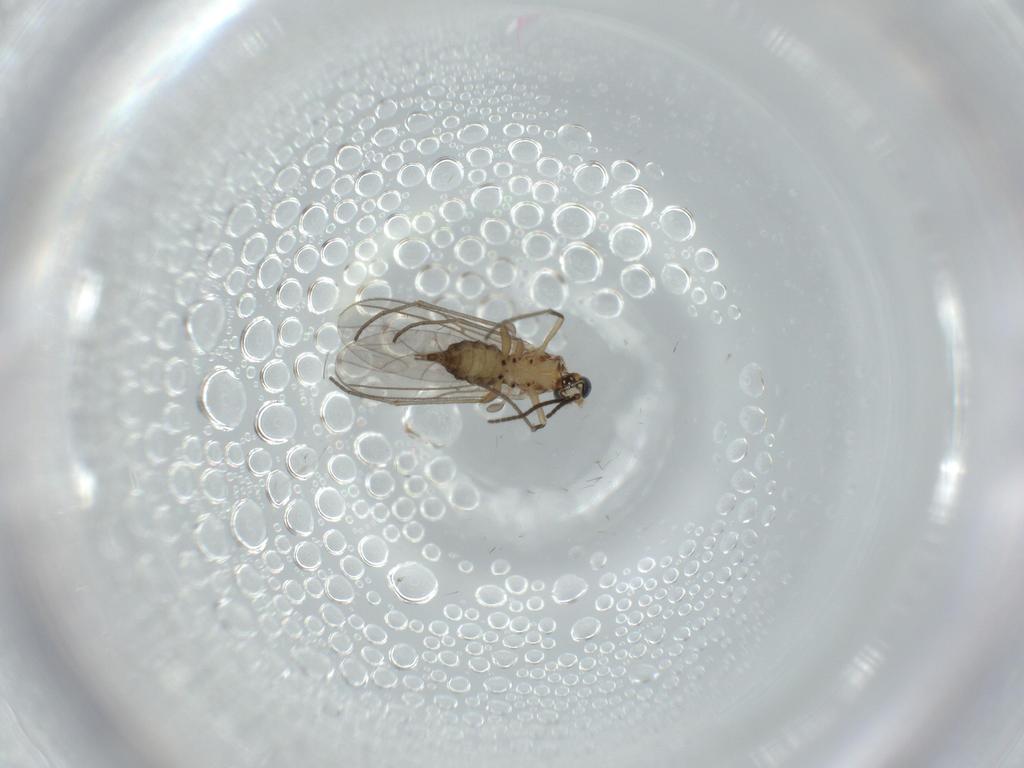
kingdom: Animalia
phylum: Arthropoda
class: Insecta
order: Diptera
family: Sciaridae
